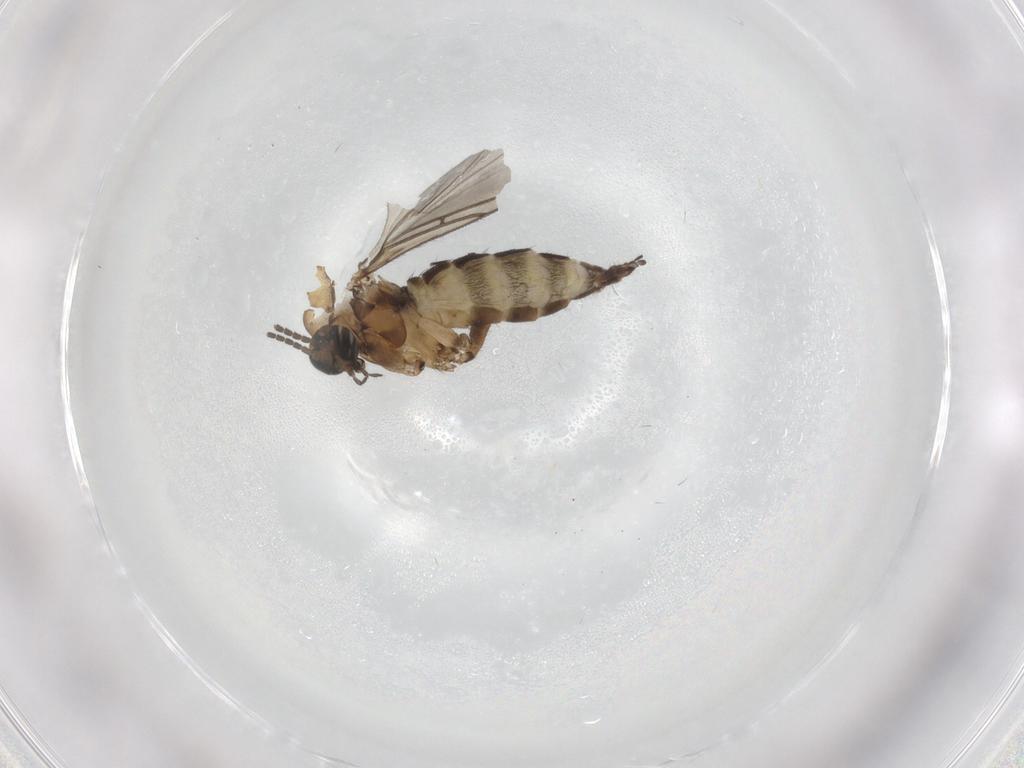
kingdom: Animalia
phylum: Arthropoda
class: Insecta
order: Diptera
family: Sciaridae
